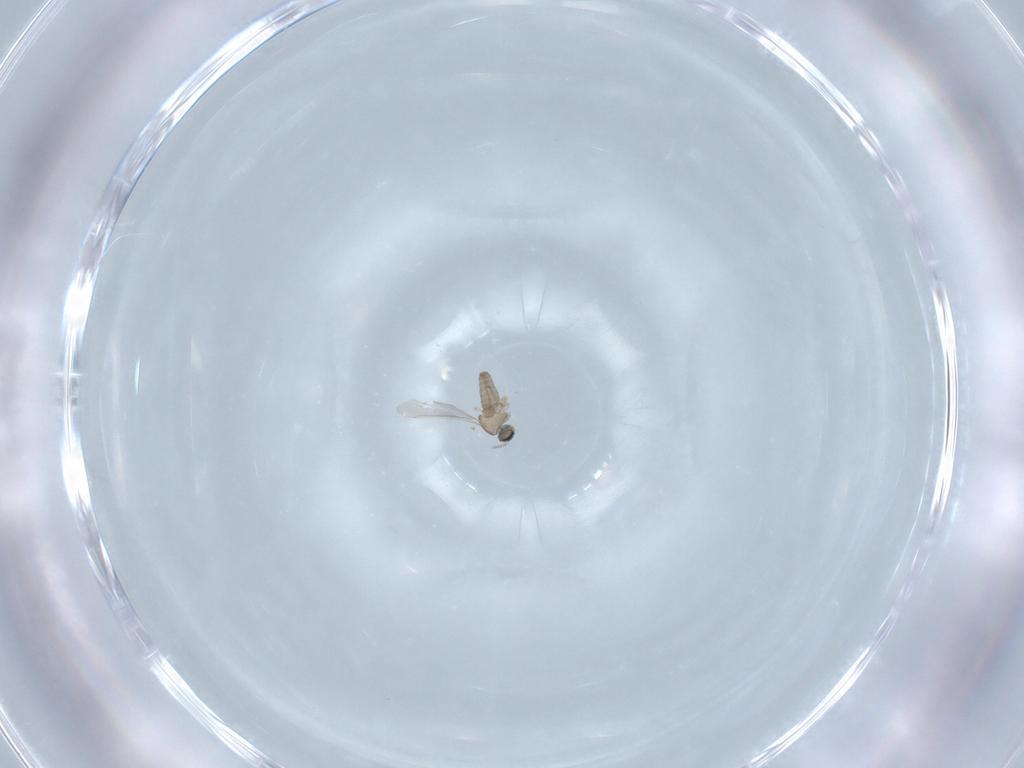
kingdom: Animalia
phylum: Arthropoda
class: Insecta
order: Diptera
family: Cecidomyiidae
